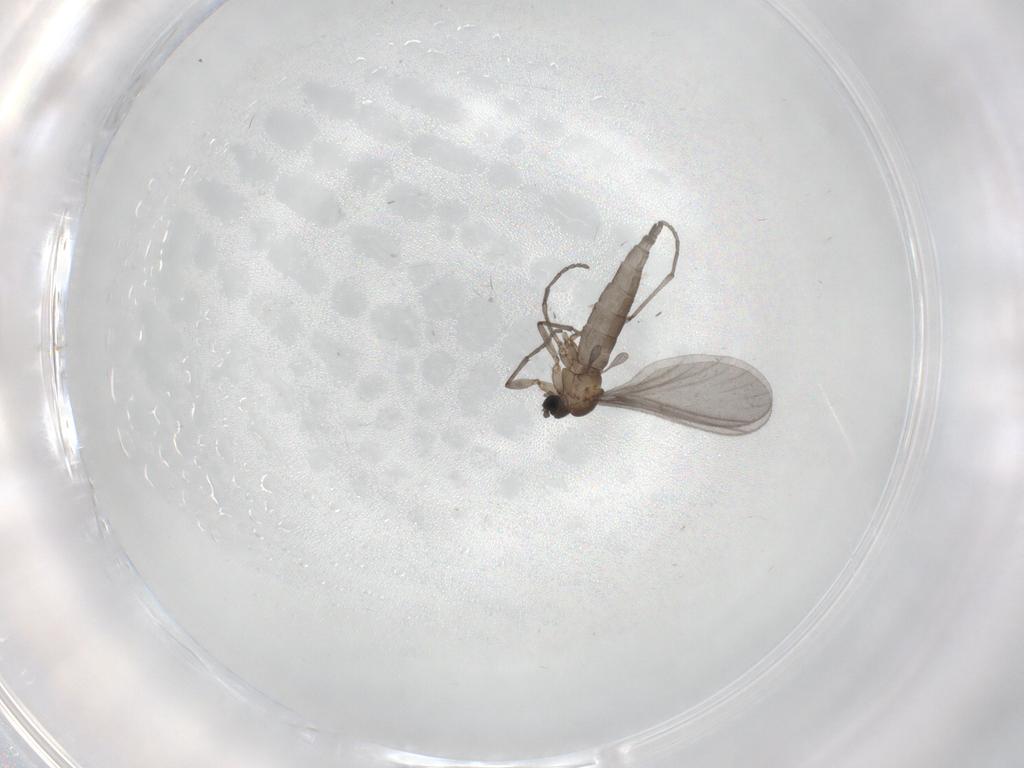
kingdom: Animalia
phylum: Arthropoda
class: Insecta
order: Diptera
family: Sciaridae
